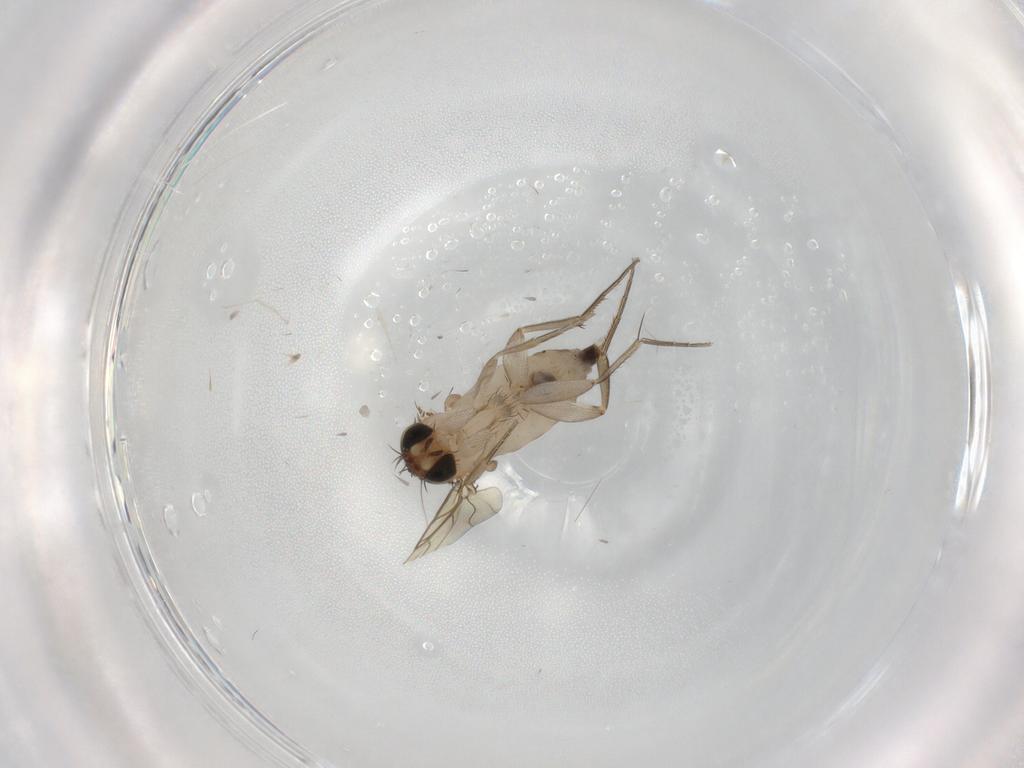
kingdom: Animalia
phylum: Arthropoda
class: Insecta
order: Diptera
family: Phoridae
